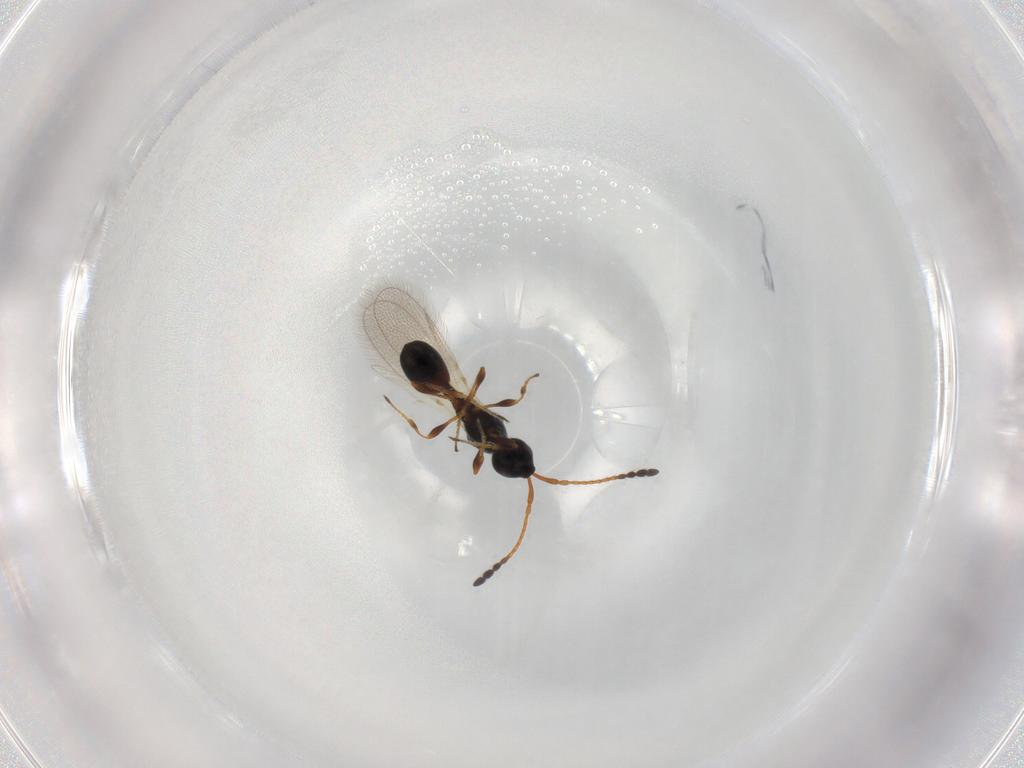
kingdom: Animalia
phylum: Arthropoda
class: Insecta
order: Hymenoptera
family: Diapriidae
